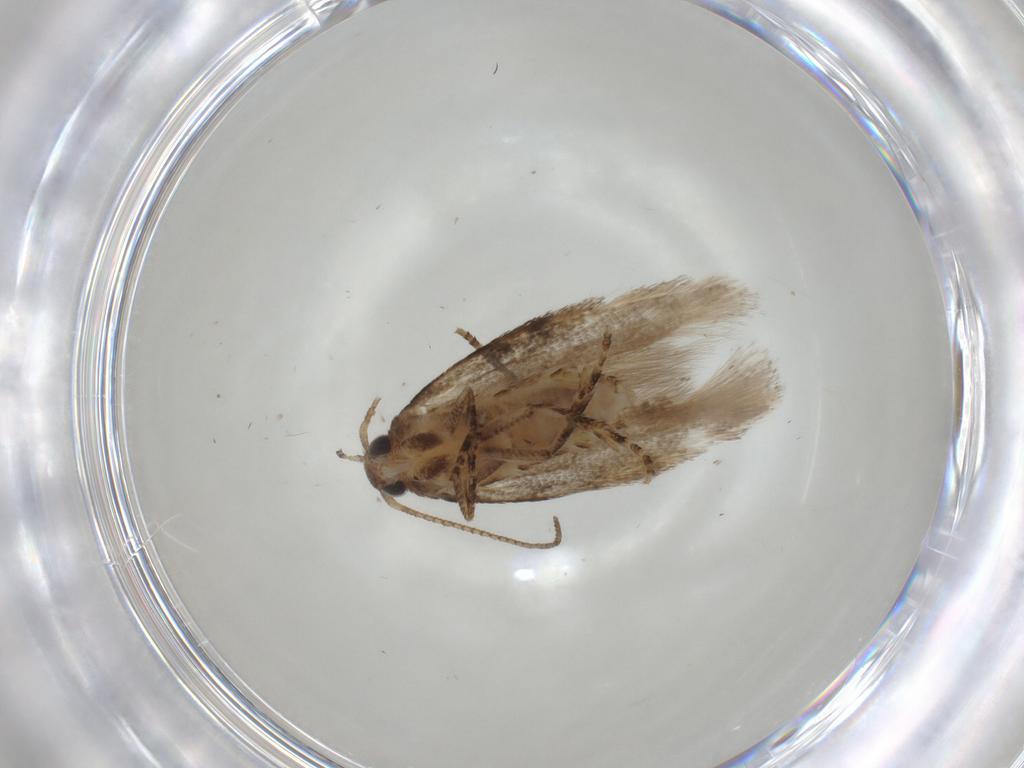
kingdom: Animalia
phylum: Arthropoda
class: Insecta
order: Lepidoptera
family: Gelechiidae
